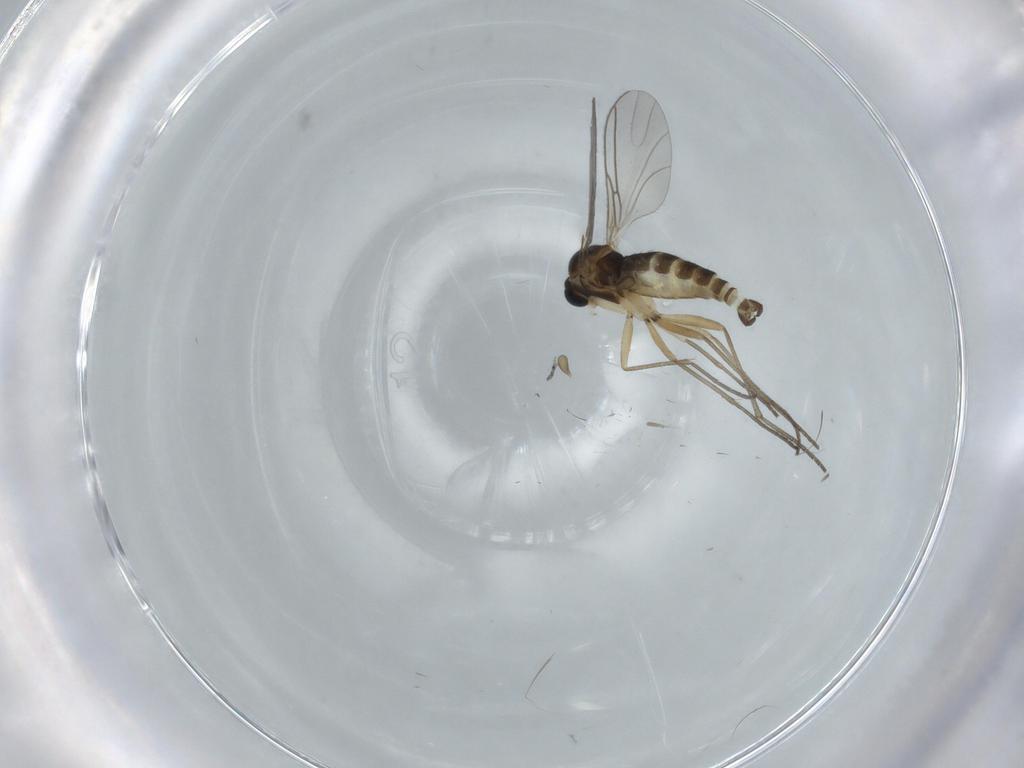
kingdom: Animalia
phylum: Arthropoda
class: Insecta
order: Diptera
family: Sciaridae
